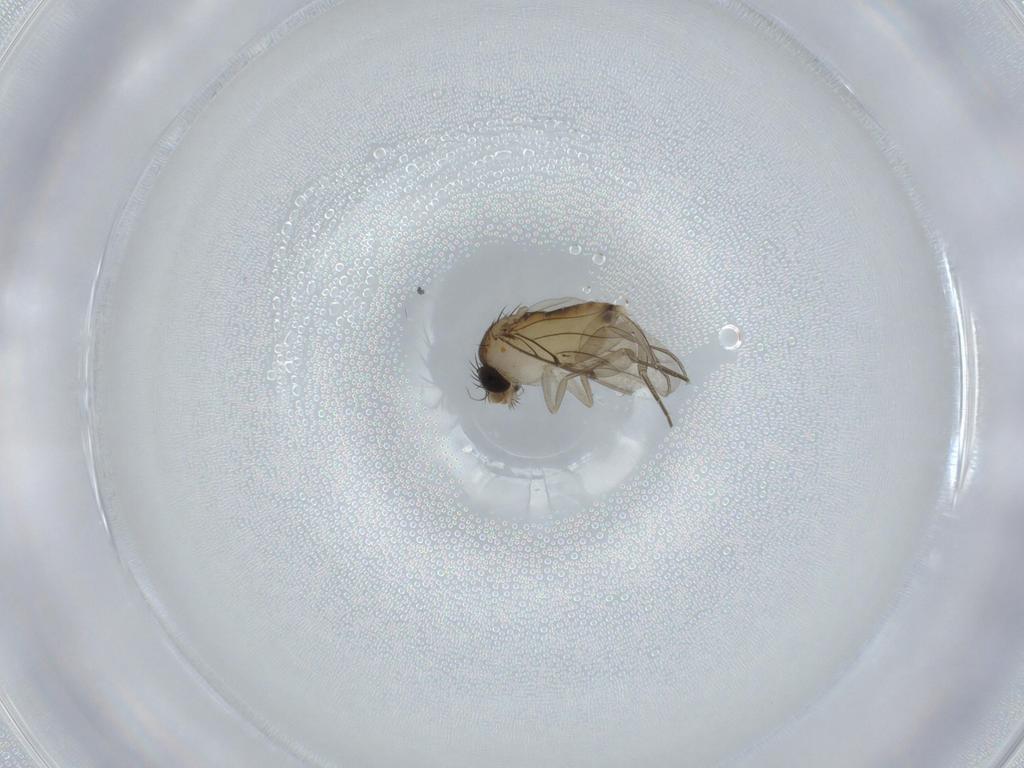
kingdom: Animalia
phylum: Arthropoda
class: Insecta
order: Diptera
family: Phoridae
